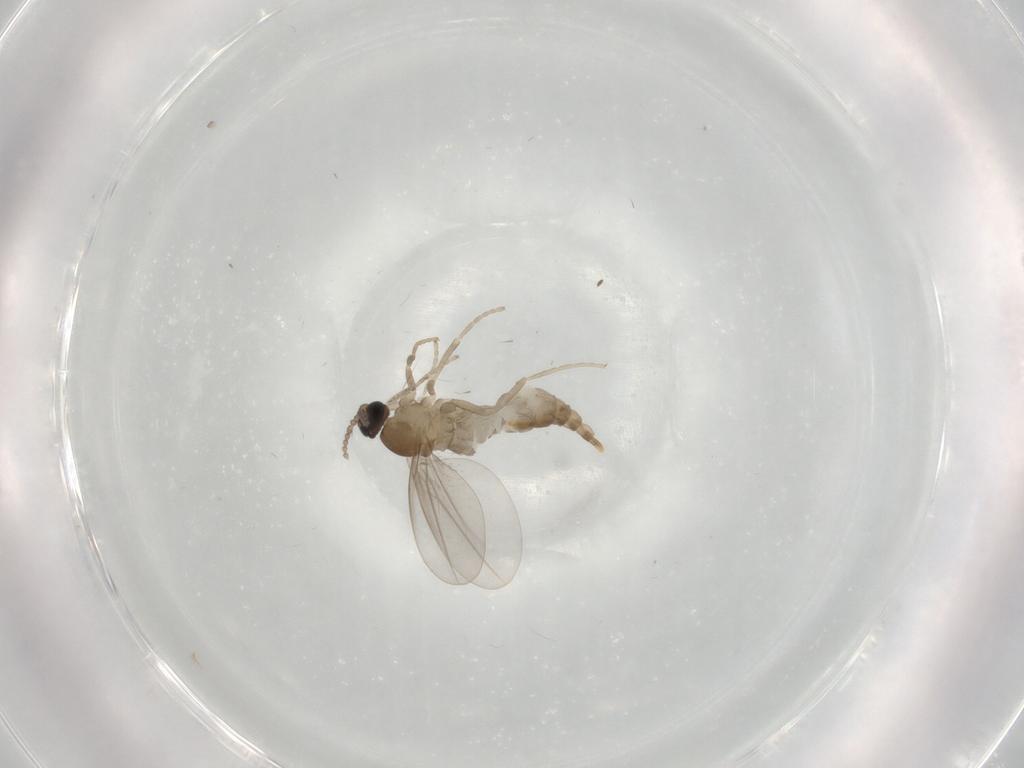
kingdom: Animalia
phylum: Arthropoda
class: Insecta
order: Diptera
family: Cecidomyiidae
